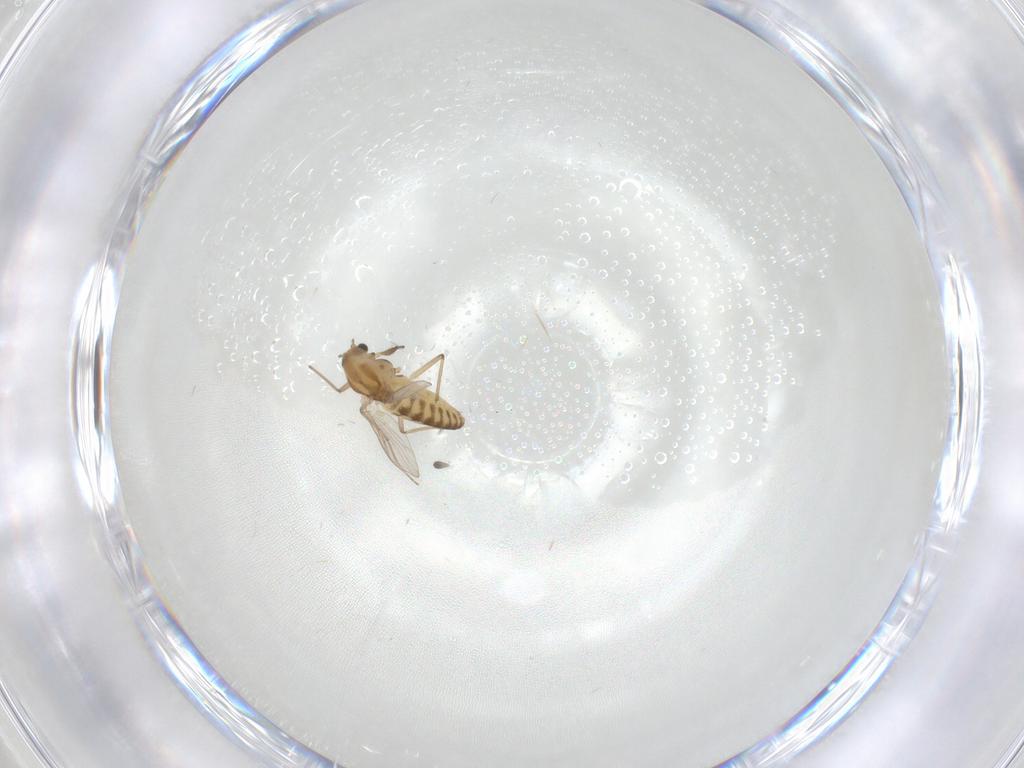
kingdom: Animalia
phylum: Arthropoda
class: Insecta
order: Diptera
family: Chironomidae
